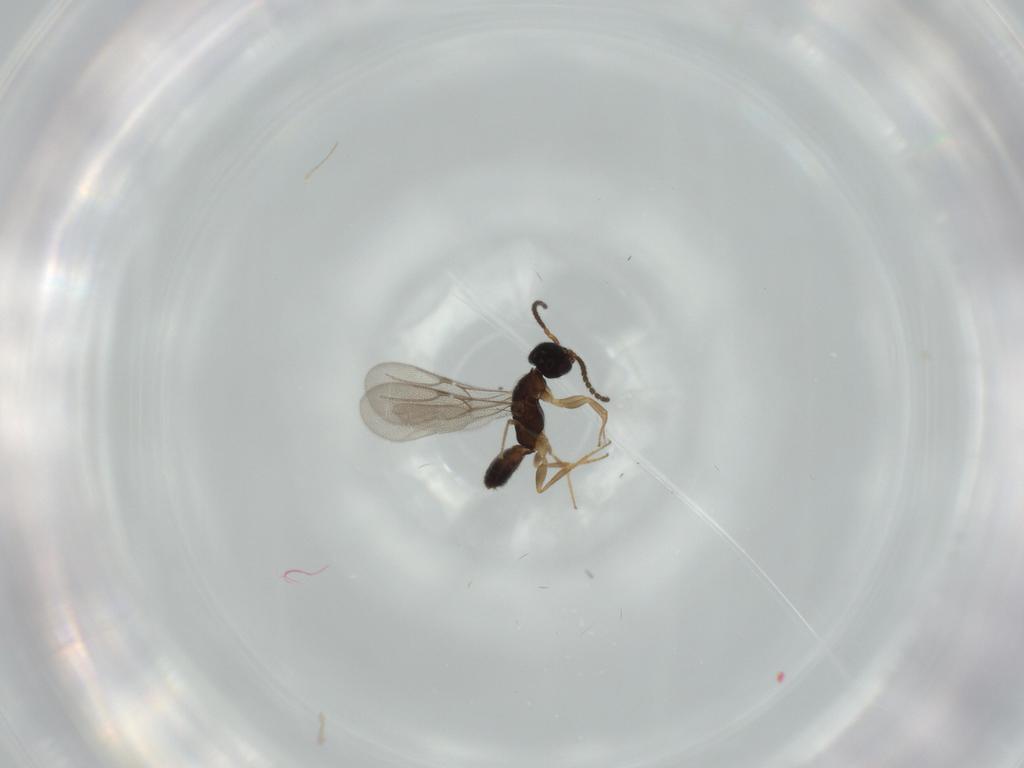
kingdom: Animalia
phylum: Arthropoda
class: Insecta
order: Hymenoptera
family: Bethylidae
